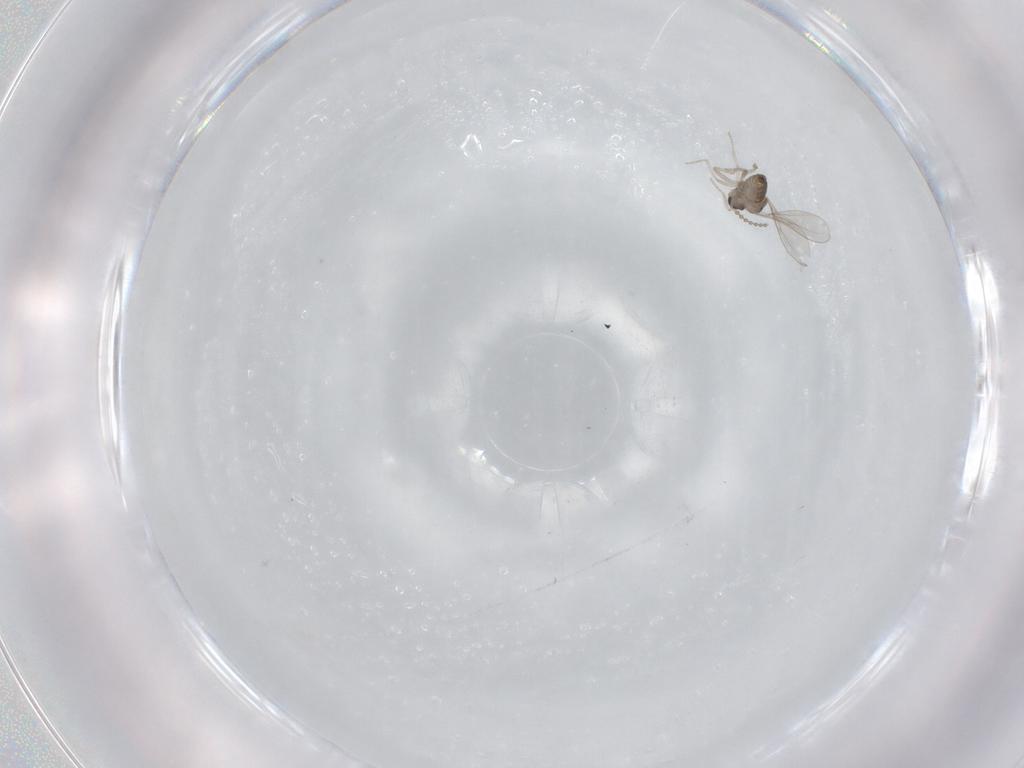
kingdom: Animalia
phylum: Arthropoda
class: Insecta
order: Diptera
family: Cecidomyiidae
